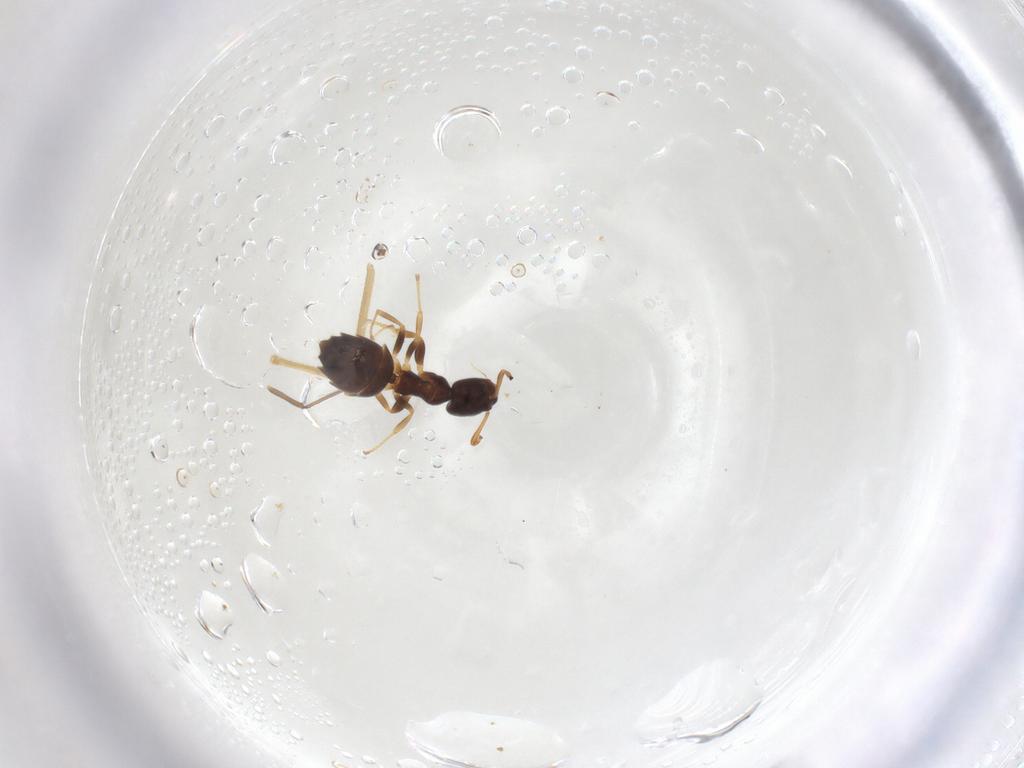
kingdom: Animalia
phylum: Arthropoda
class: Insecta
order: Hymenoptera
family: Formicidae
